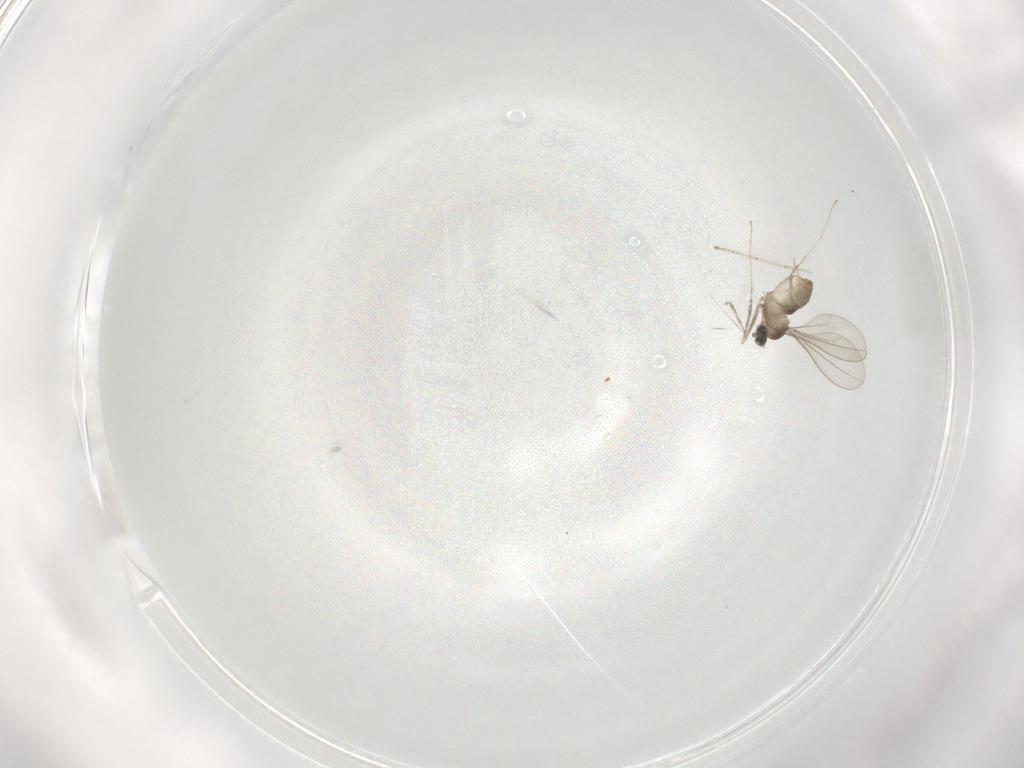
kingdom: Animalia
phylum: Arthropoda
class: Insecta
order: Diptera
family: Cecidomyiidae
